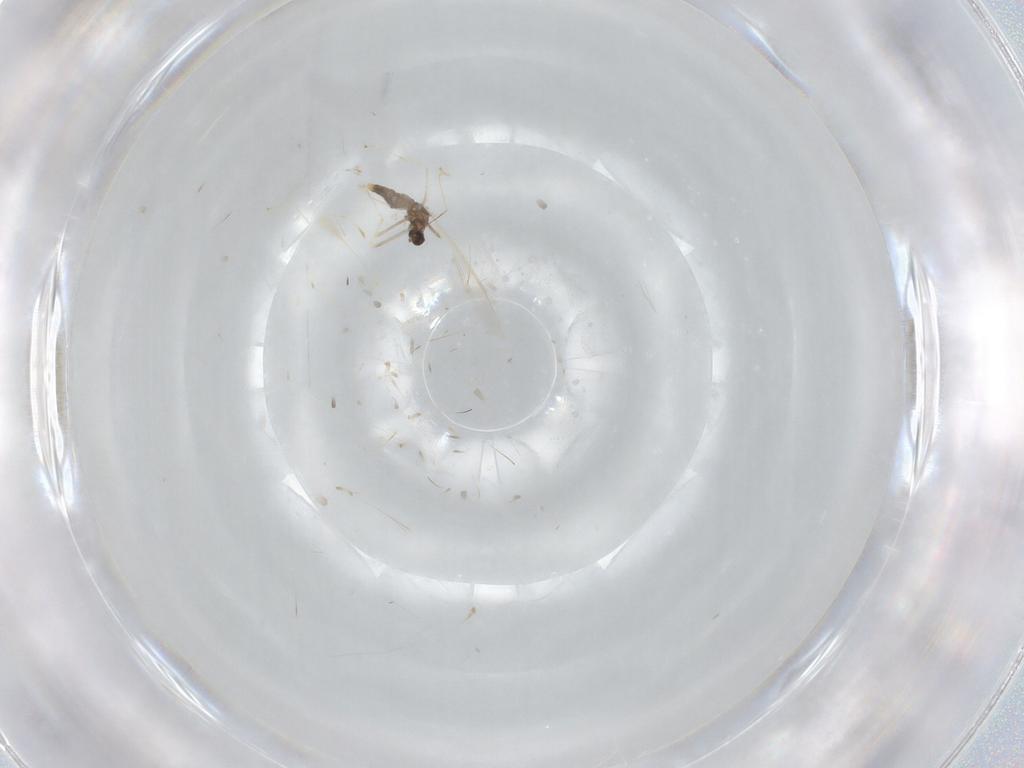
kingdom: Animalia
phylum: Arthropoda
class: Insecta
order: Diptera
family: Cecidomyiidae
